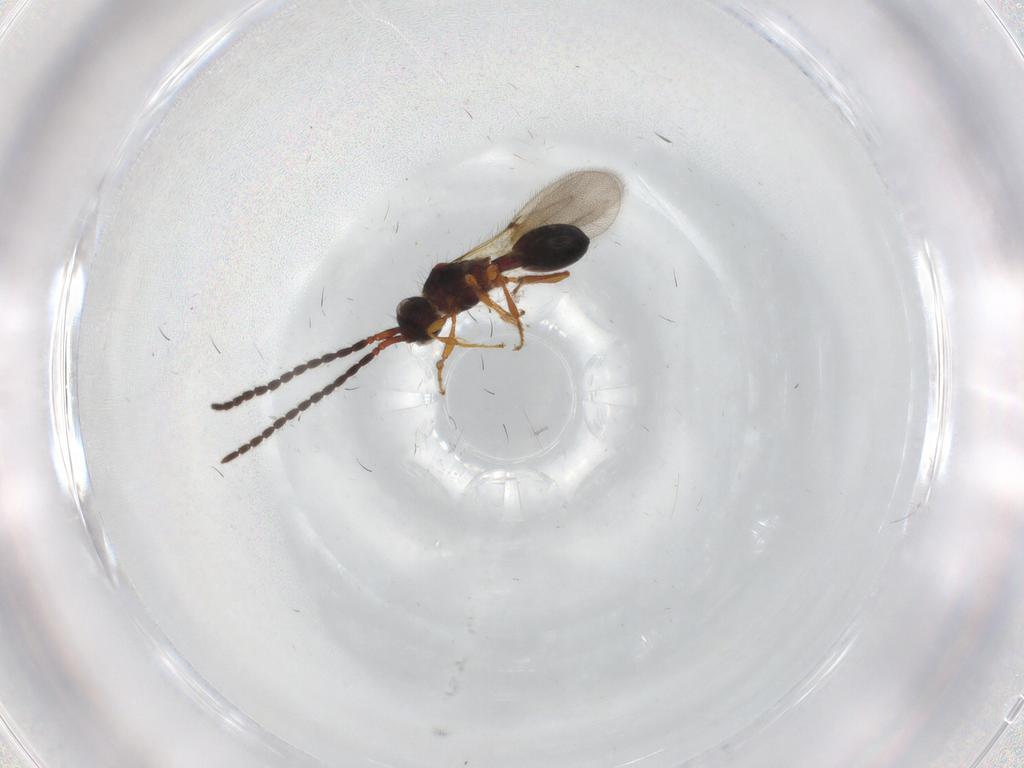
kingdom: Animalia
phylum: Arthropoda
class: Insecta
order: Hymenoptera
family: Diapriidae
